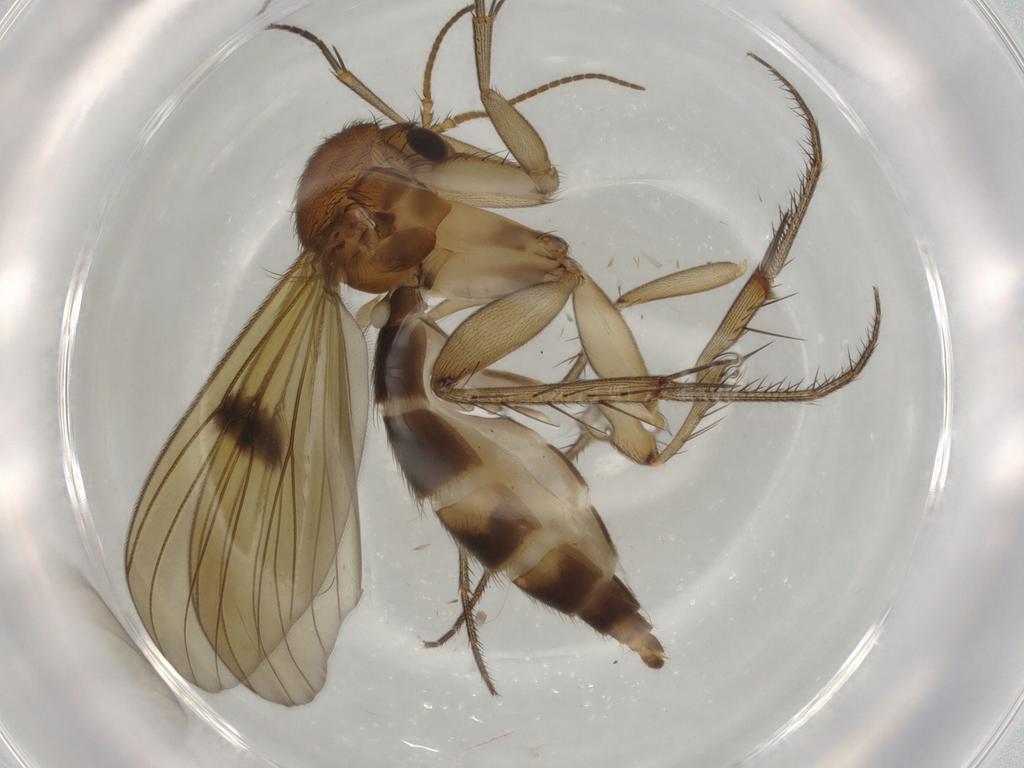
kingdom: Animalia
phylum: Arthropoda
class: Insecta
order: Diptera
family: Mycetophilidae
